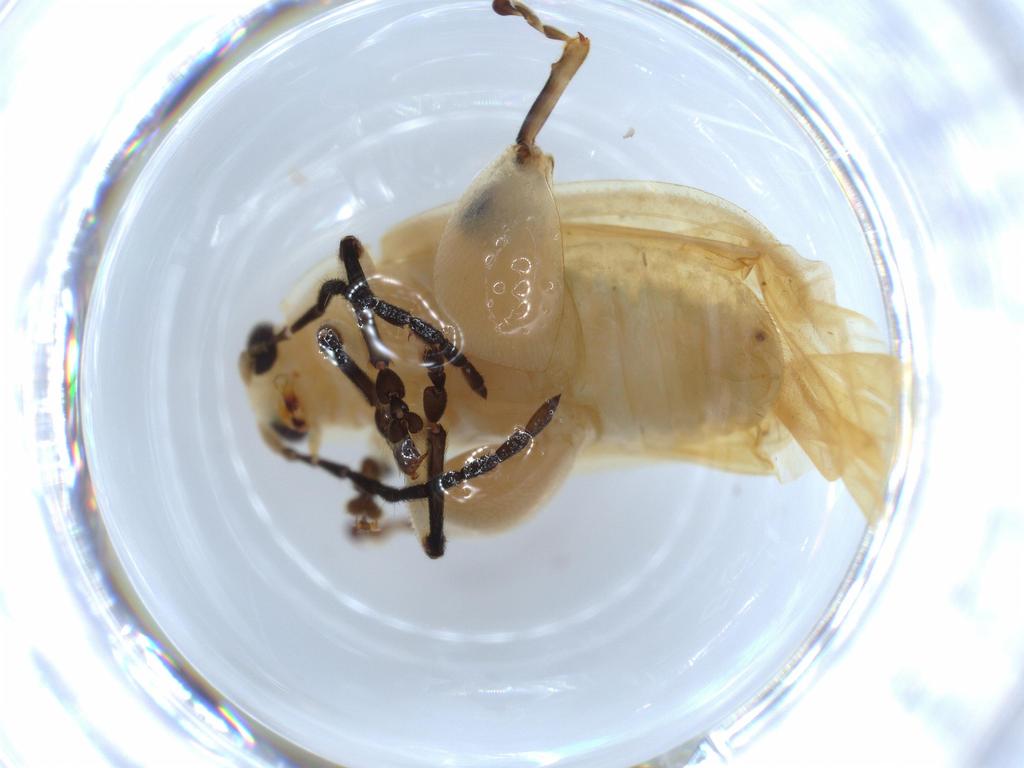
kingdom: Animalia
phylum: Arthropoda
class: Insecta
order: Coleoptera
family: Chrysomelidae
